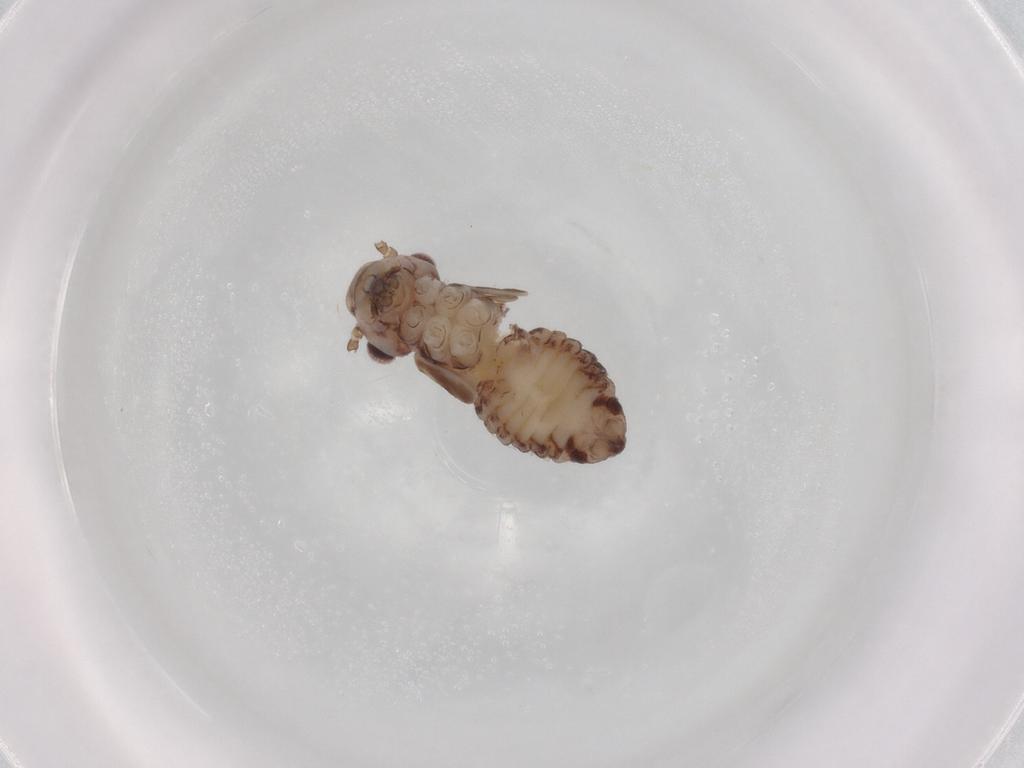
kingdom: Animalia
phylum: Arthropoda
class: Insecta
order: Psocodea
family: Psocidae
